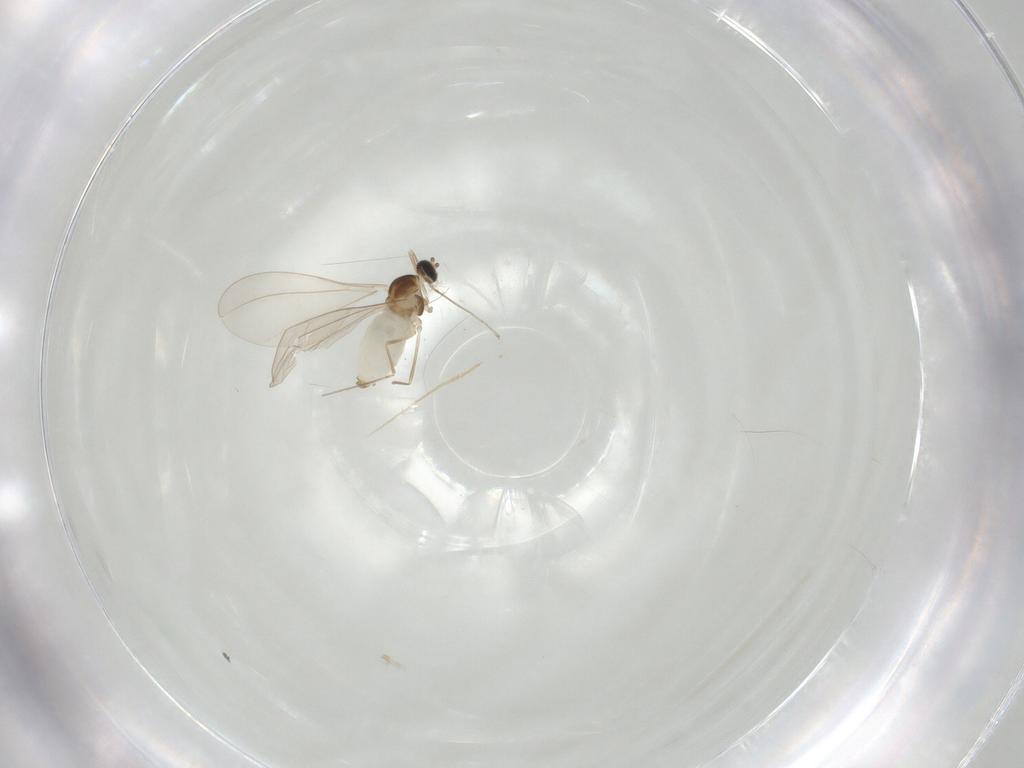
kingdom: Animalia
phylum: Arthropoda
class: Insecta
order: Diptera
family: Cecidomyiidae
